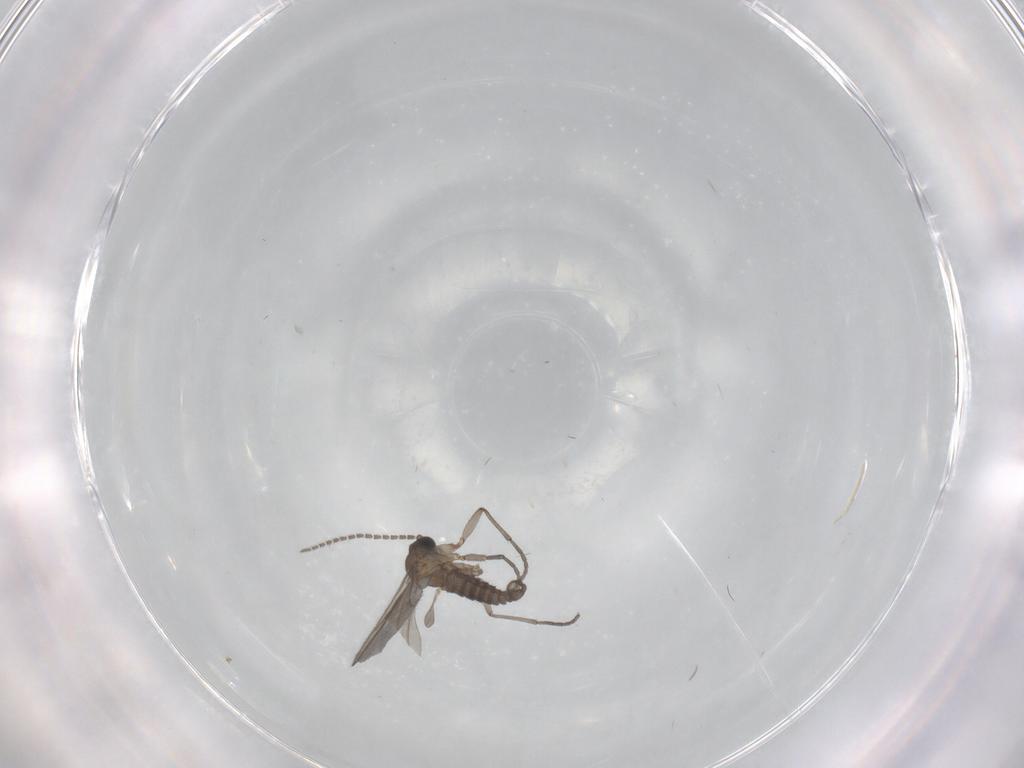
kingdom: Animalia
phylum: Arthropoda
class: Insecta
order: Diptera
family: Sciaridae
